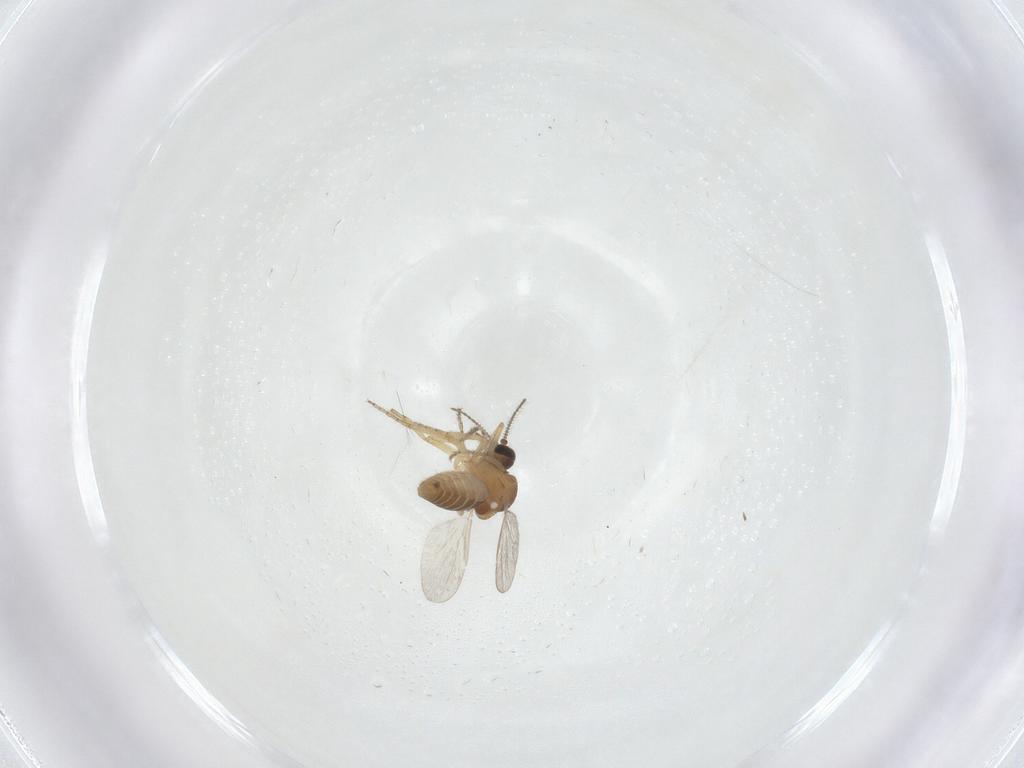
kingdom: Animalia
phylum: Arthropoda
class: Insecta
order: Diptera
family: Ceratopogonidae
